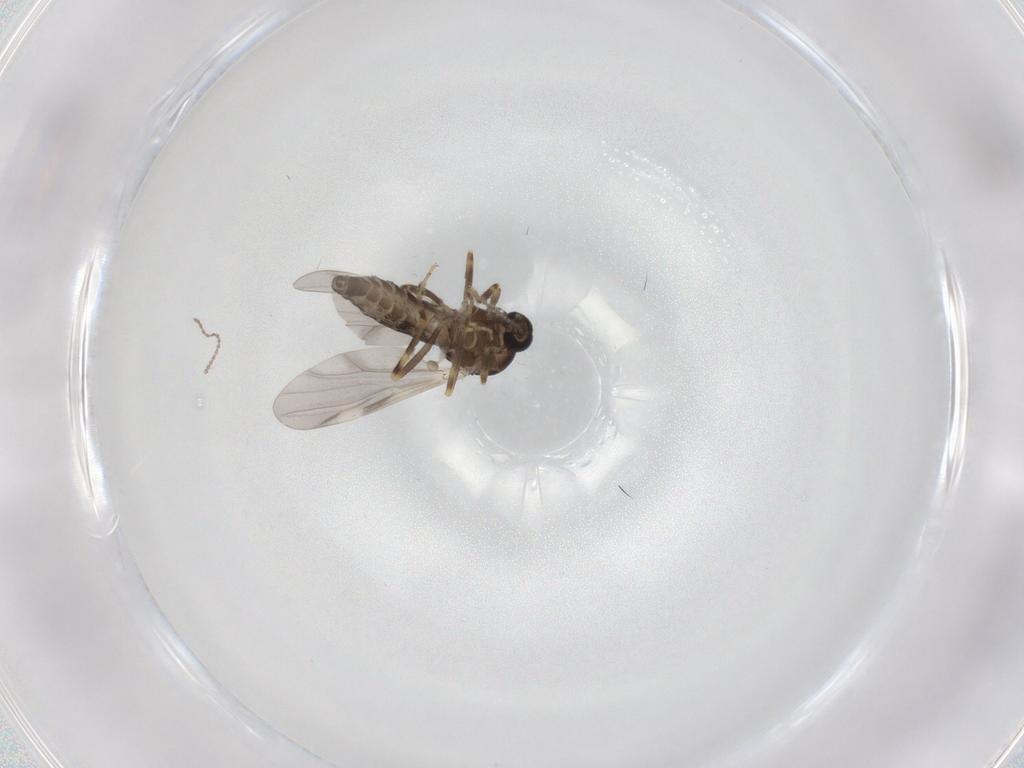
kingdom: Animalia
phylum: Arthropoda
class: Insecta
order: Diptera
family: Ceratopogonidae
